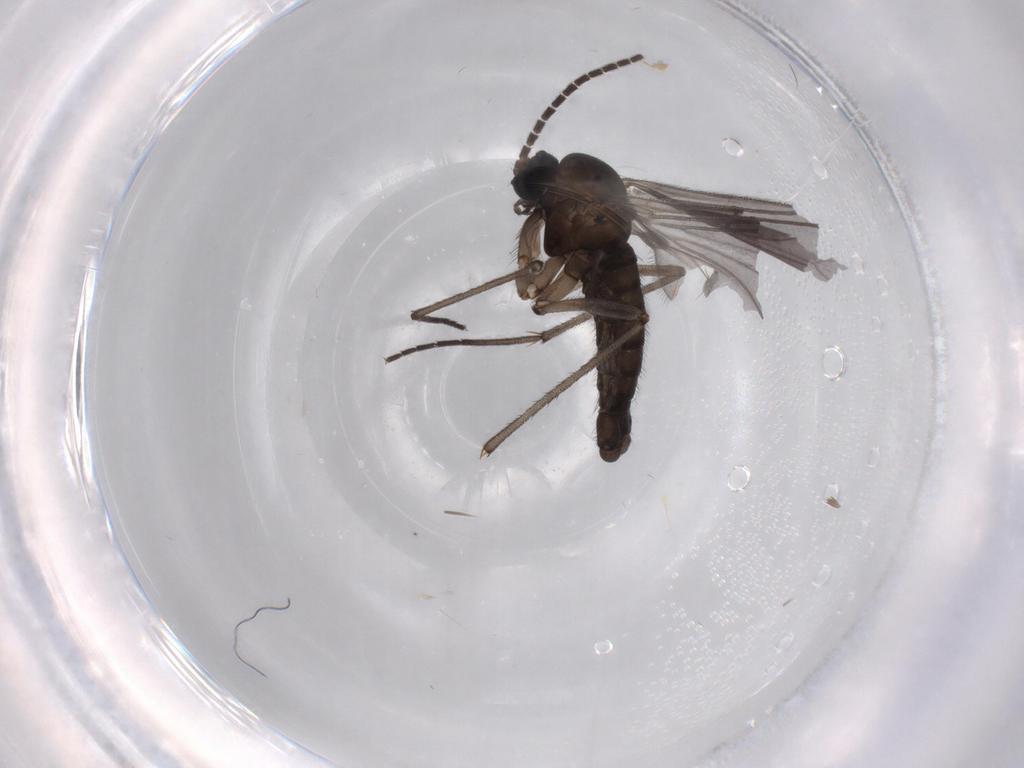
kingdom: Animalia
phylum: Arthropoda
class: Insecta
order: Diptera
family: Sciaridae
